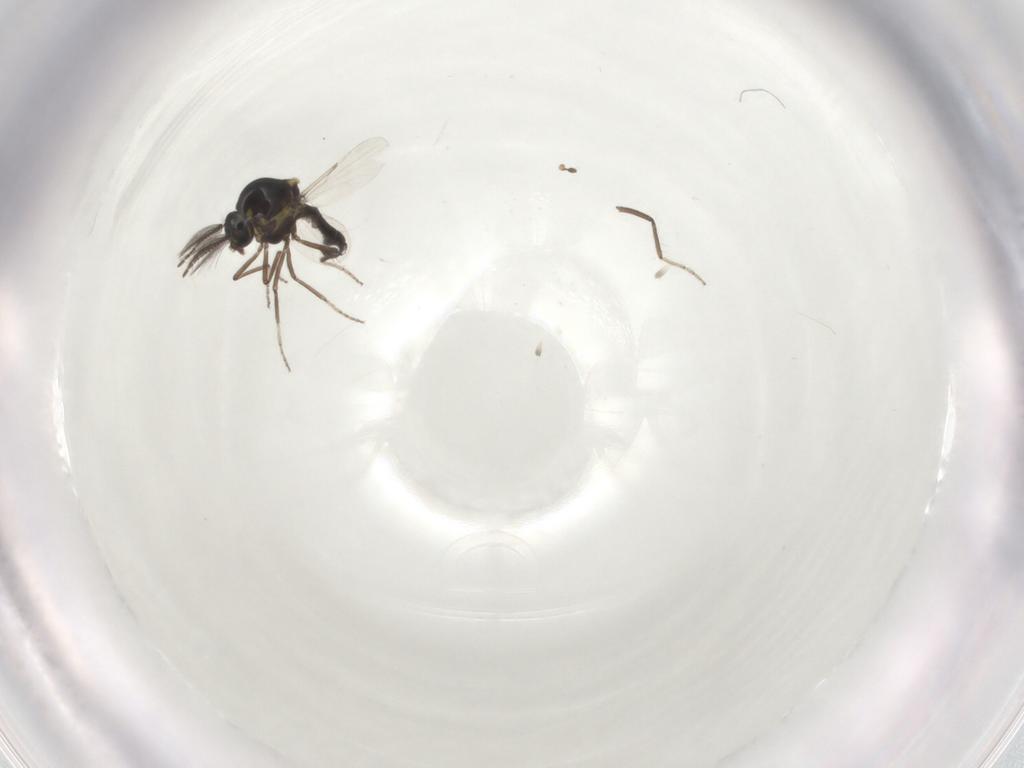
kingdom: Animalia
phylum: Arthropoda
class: Insecta
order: Diptera
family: Ceratopogonidae
